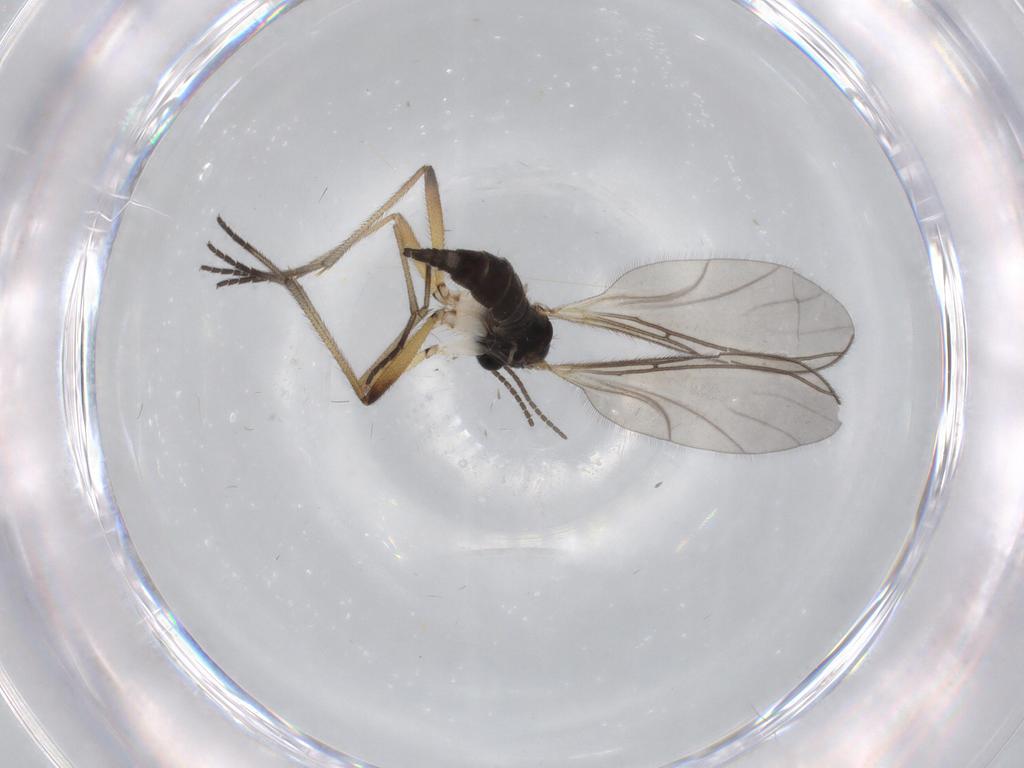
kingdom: Animalia
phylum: Arthropoda
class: Insecta
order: Diptera
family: Sciaridae
